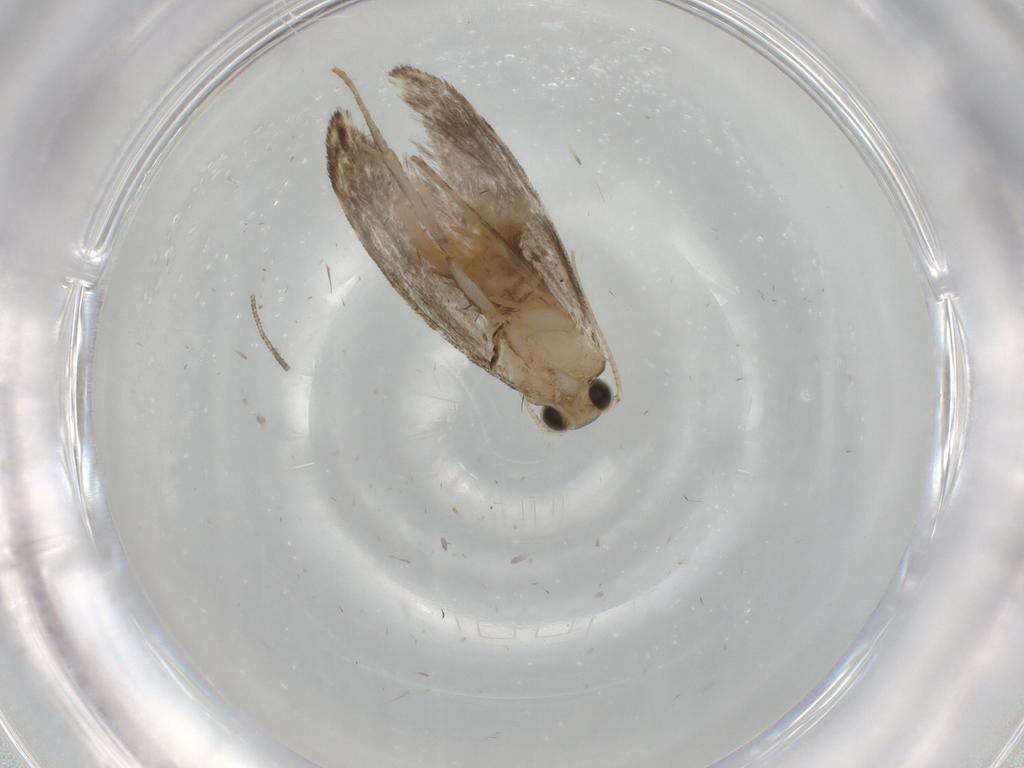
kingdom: Animalia
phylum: Arthropoda
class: Insecta
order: Lepidoptera
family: Tineidae
